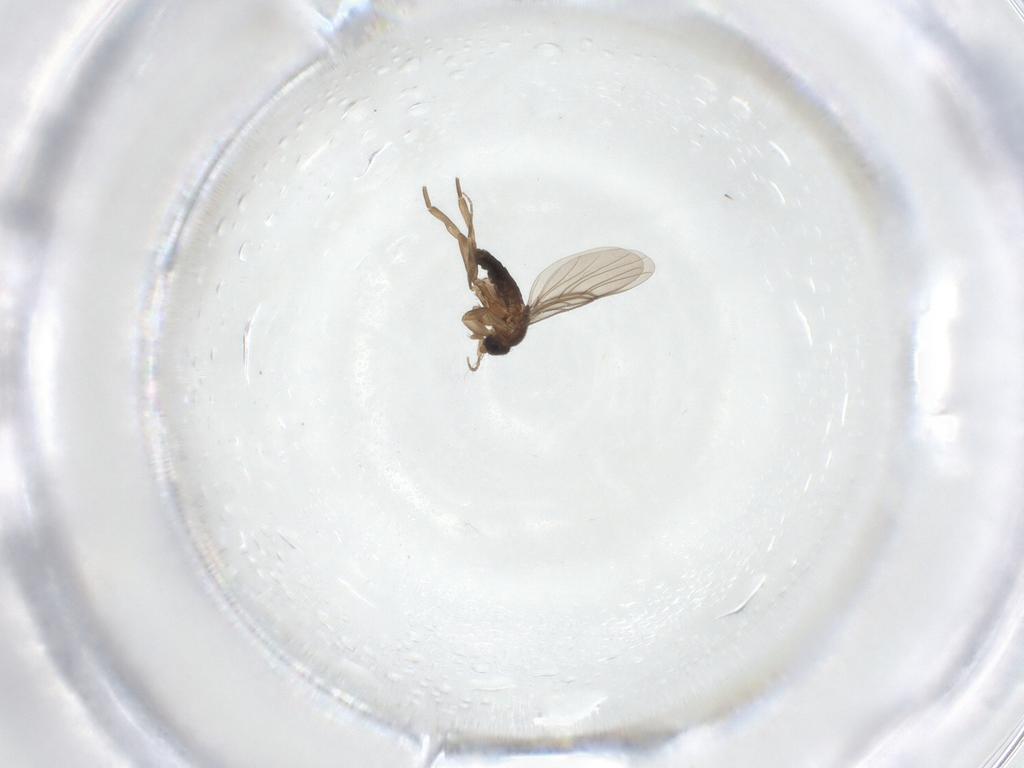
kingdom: Animalia
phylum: Arthropoda
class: Insecta
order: Diptera
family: Phoridae
